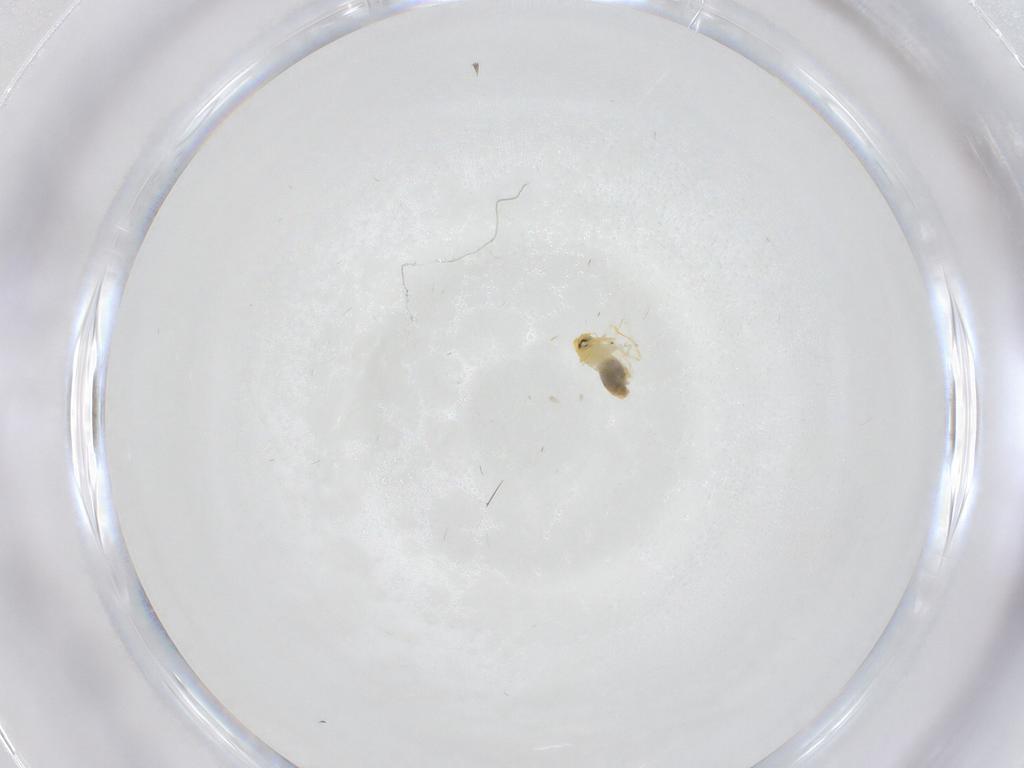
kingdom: Animalia
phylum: Arthropoda
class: Insecta
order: Hemiptera
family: Aleyrodidae
